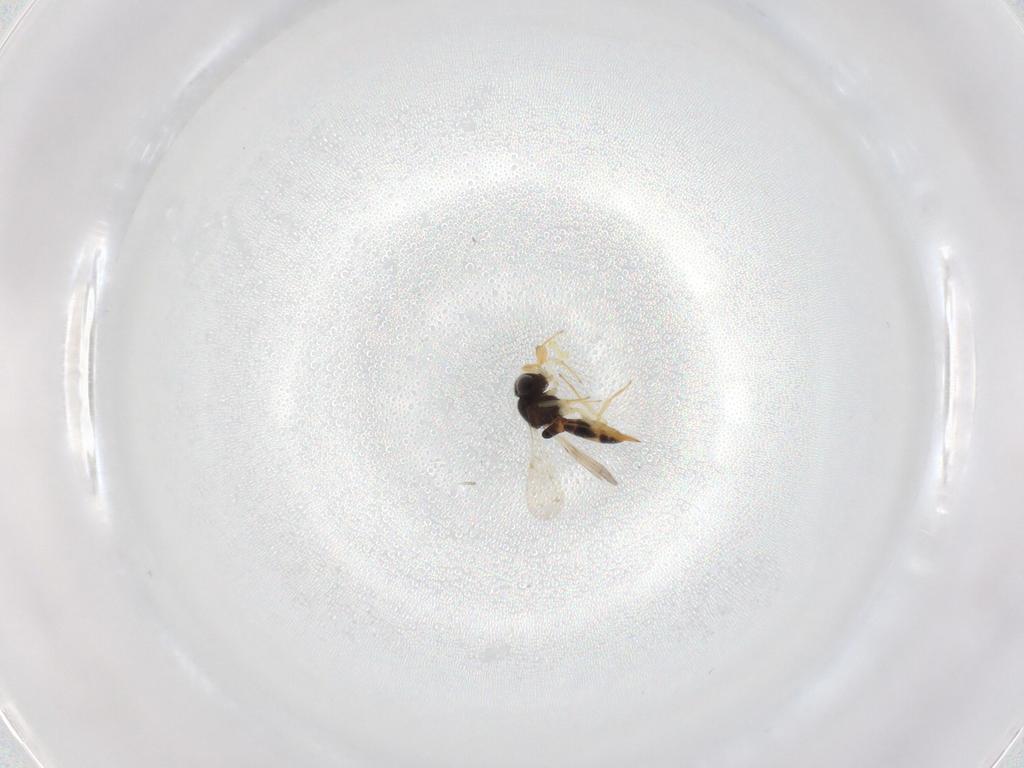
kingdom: Animalia
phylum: Arthropoda
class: Insecta
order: Hymenoptera
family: Scelionidae
